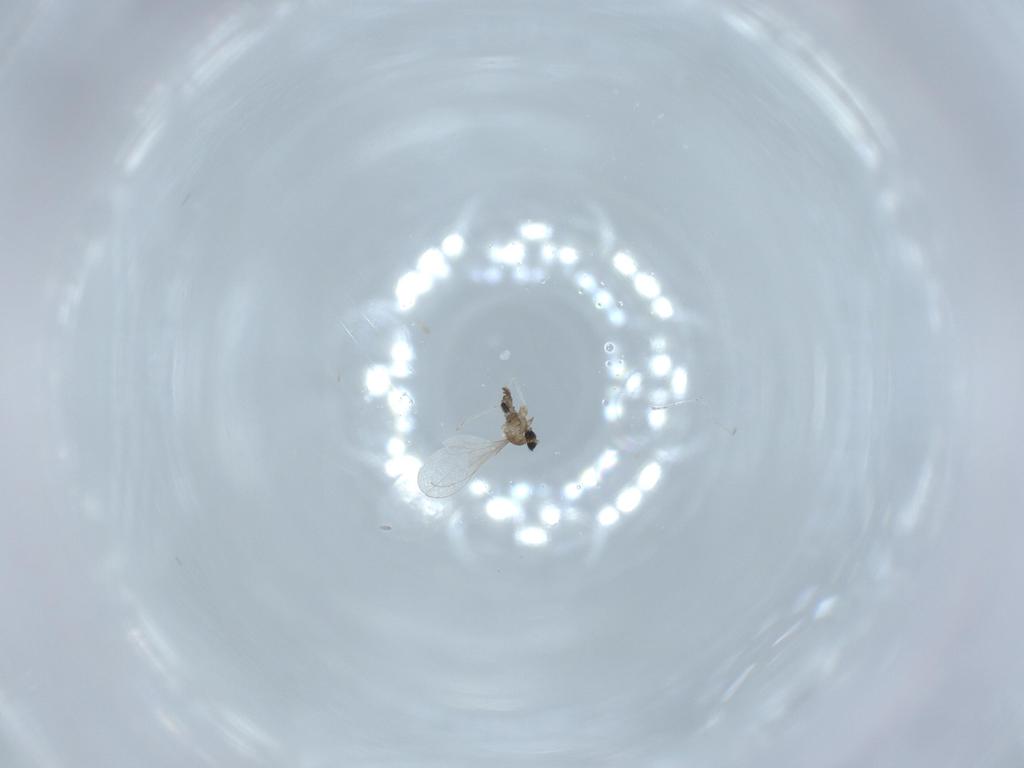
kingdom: Animalia
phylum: Arthropoda
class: Insecta
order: Diptera
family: Cecidomyiidae
